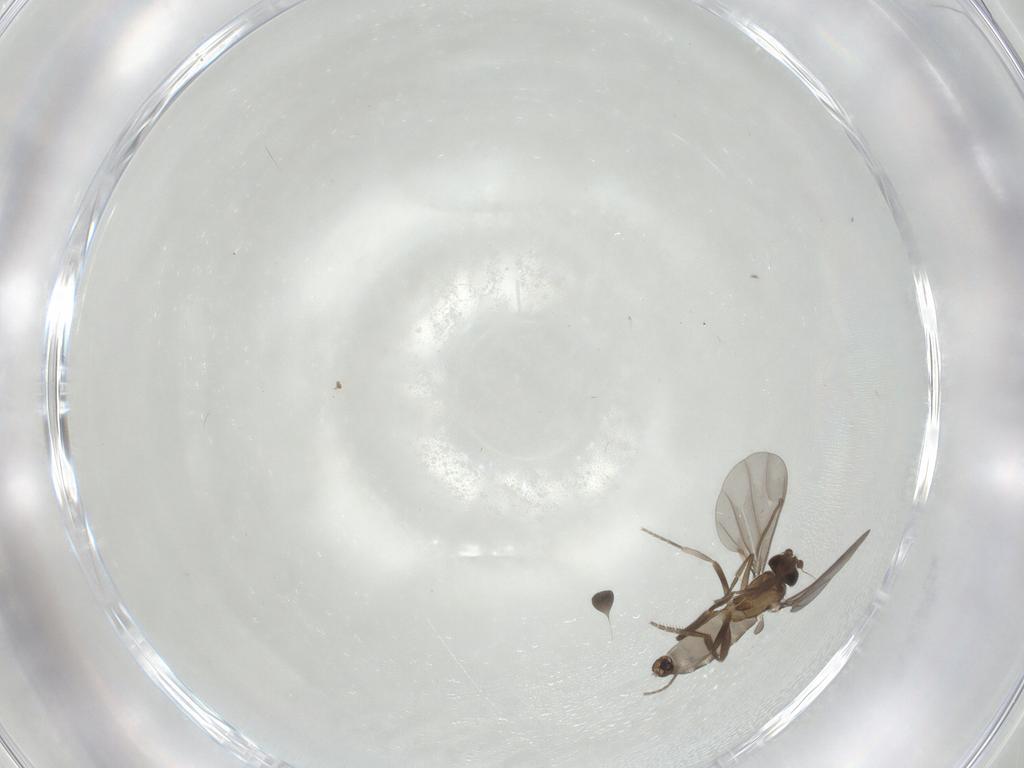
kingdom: Animalia
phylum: Arthropoda
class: Insecta
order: Diptera
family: Phoridae
